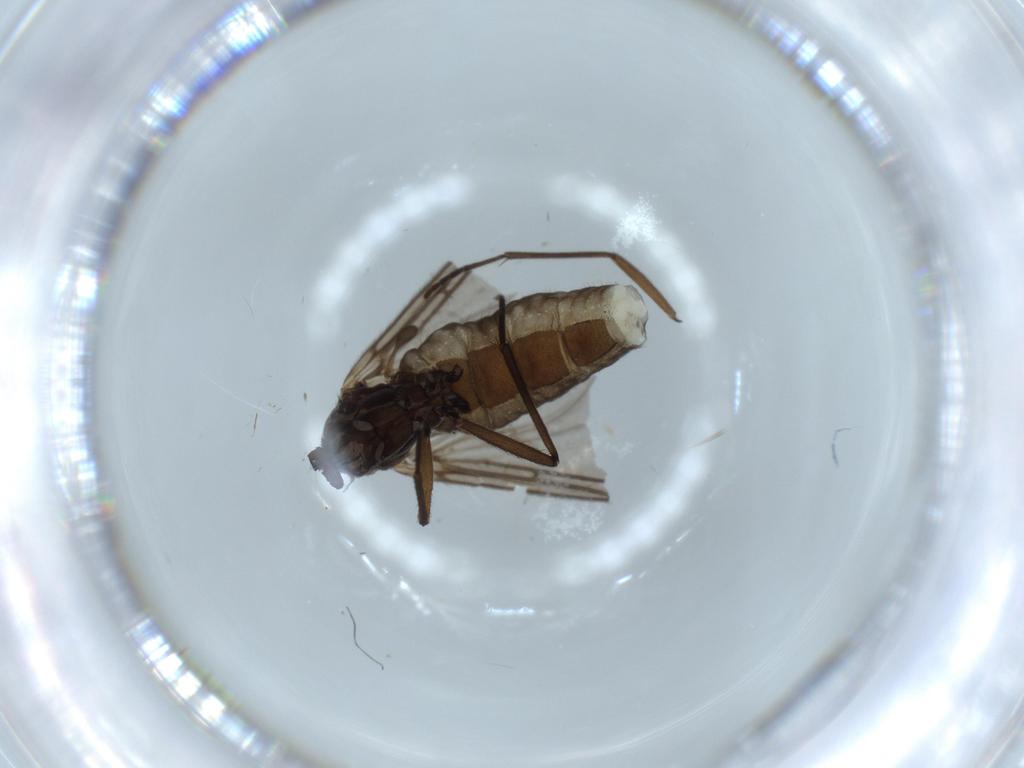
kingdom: Animalia
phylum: Arthropoda
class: Insecta
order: Diptera
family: Sciaridae
